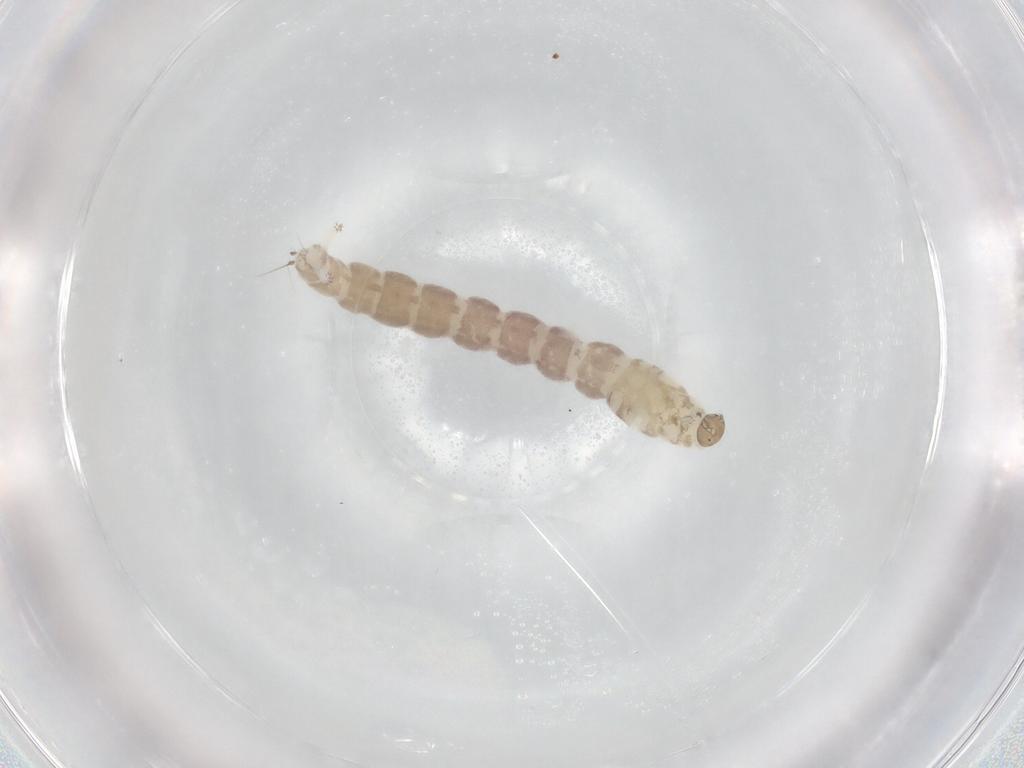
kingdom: Animalia
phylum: Arthropoda
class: Insecta
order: Diptera
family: Chironomidae
